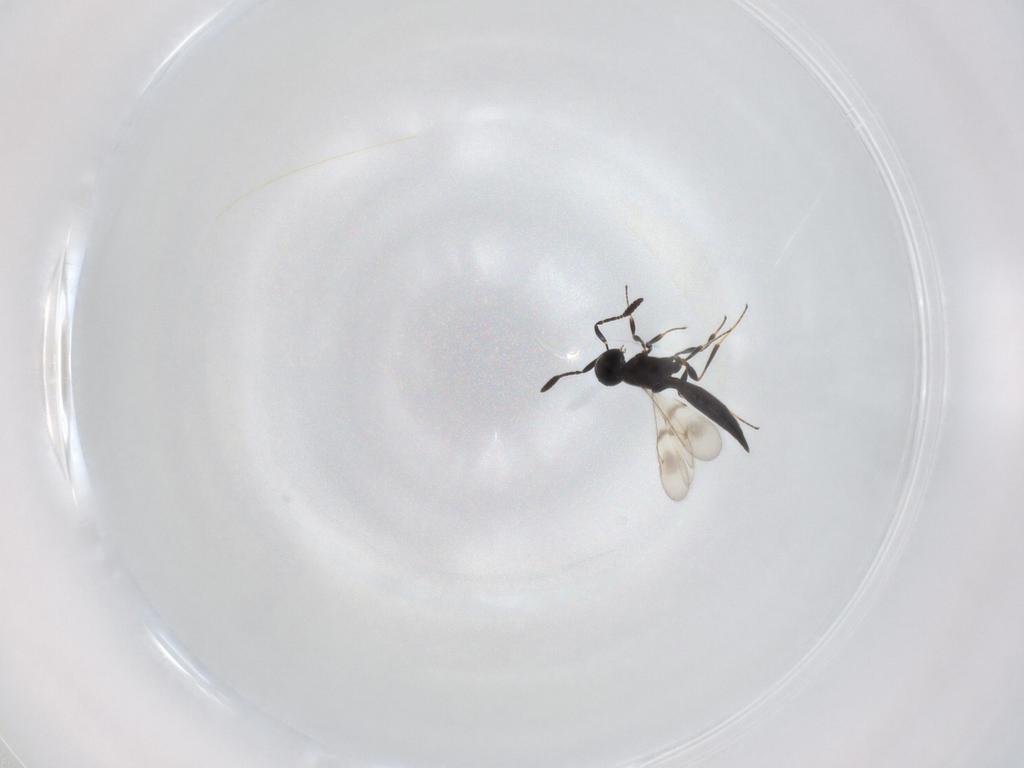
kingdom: Animalia
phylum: Arthropoda
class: Insecta
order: Hymenoptera
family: Scelionidae
